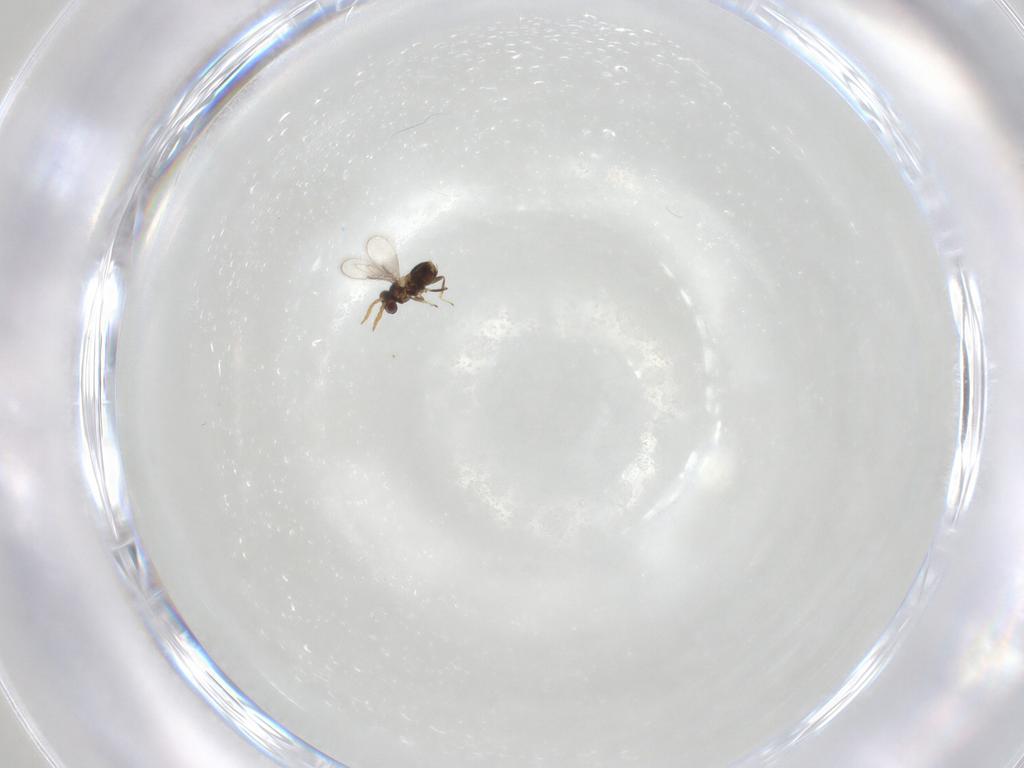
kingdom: Animalia
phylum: Arthropoda
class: Insecta
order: Hymenoptera
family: Aphelinidae
